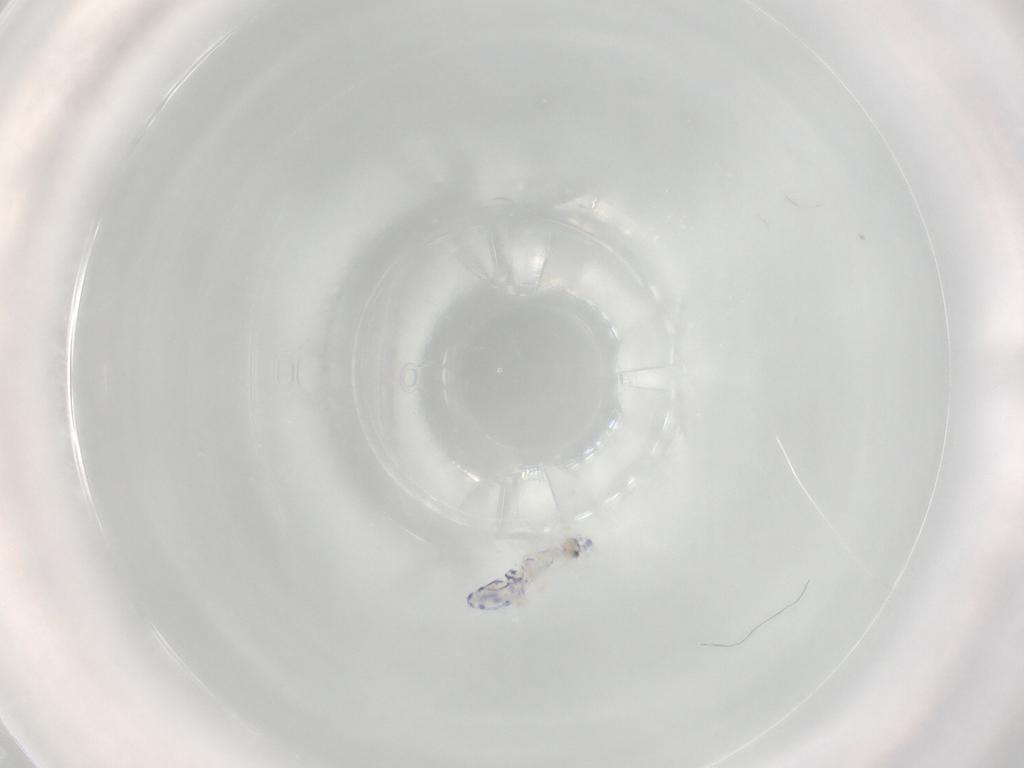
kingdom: Animalia
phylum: Arthropoda
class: Collembola
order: Entomobryomorpha
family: Entomobryidae
